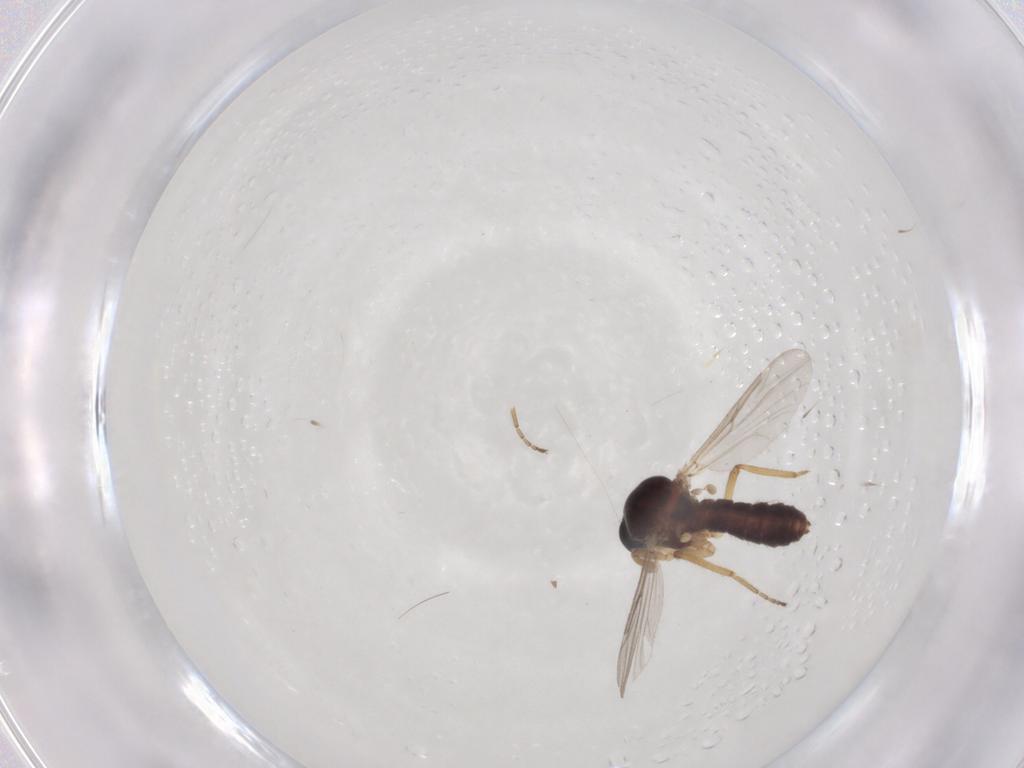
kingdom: Animalia
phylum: Arthropoda
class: Insecta
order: Diptera
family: Ceratopogonidae
